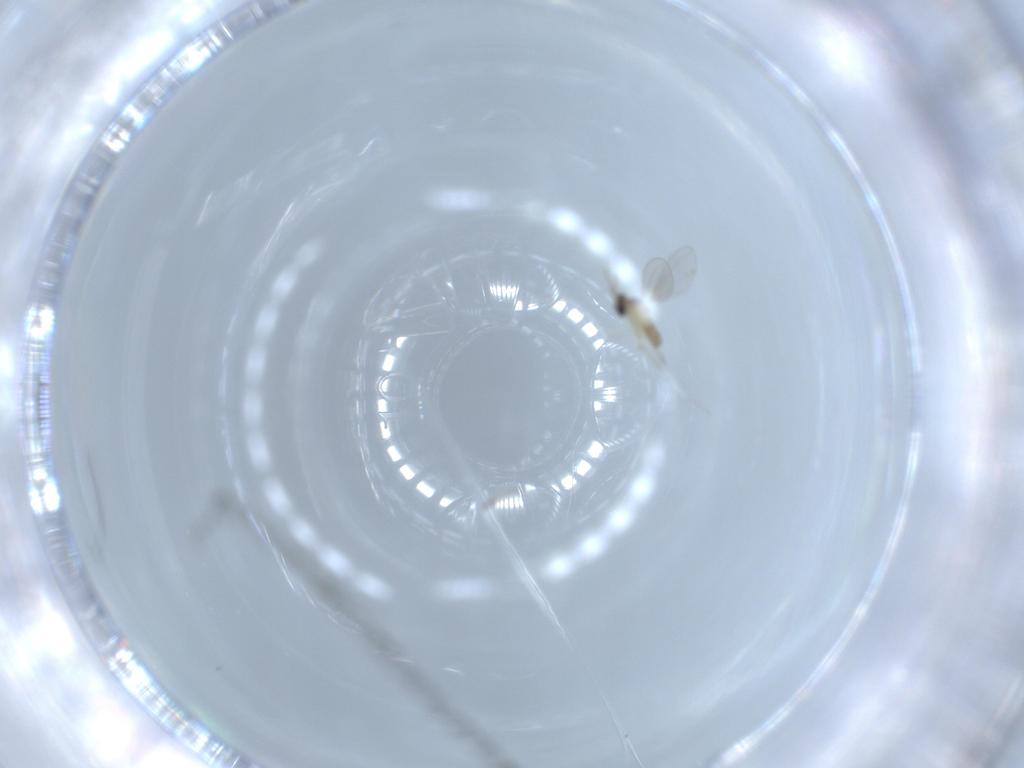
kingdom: Animalia
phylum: Arthropoda
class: Insecta
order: Diptera
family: Cecidomyiidae
